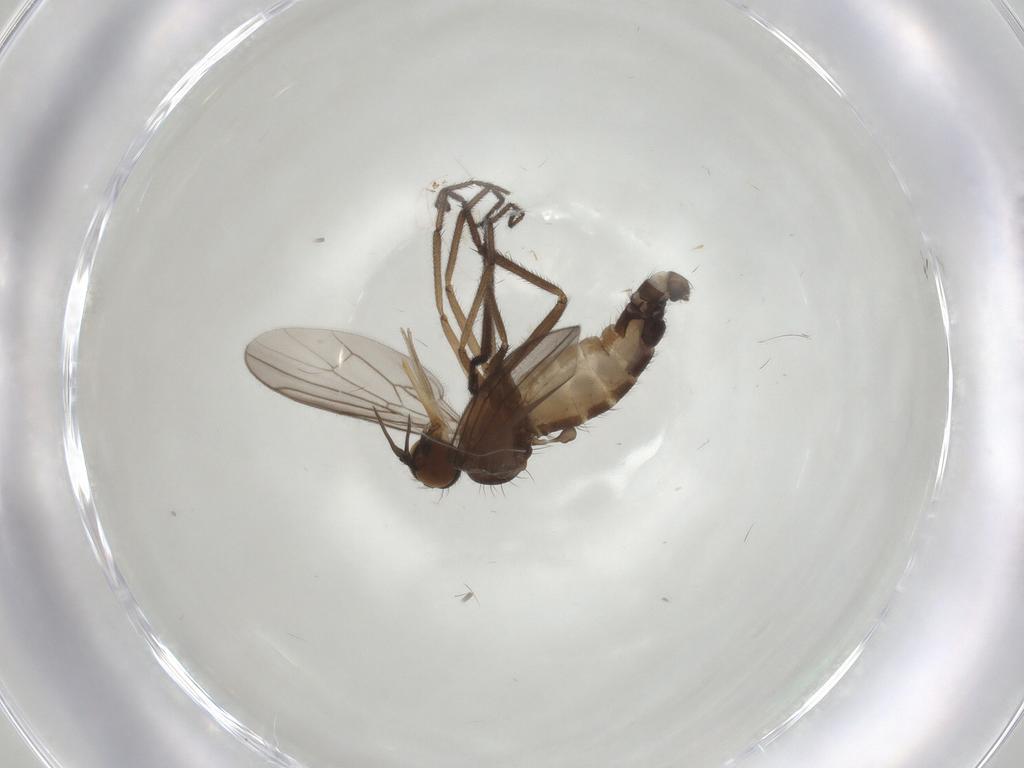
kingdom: Animalia
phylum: Arthropoda
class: Insecta
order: Diptera
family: Empididae
